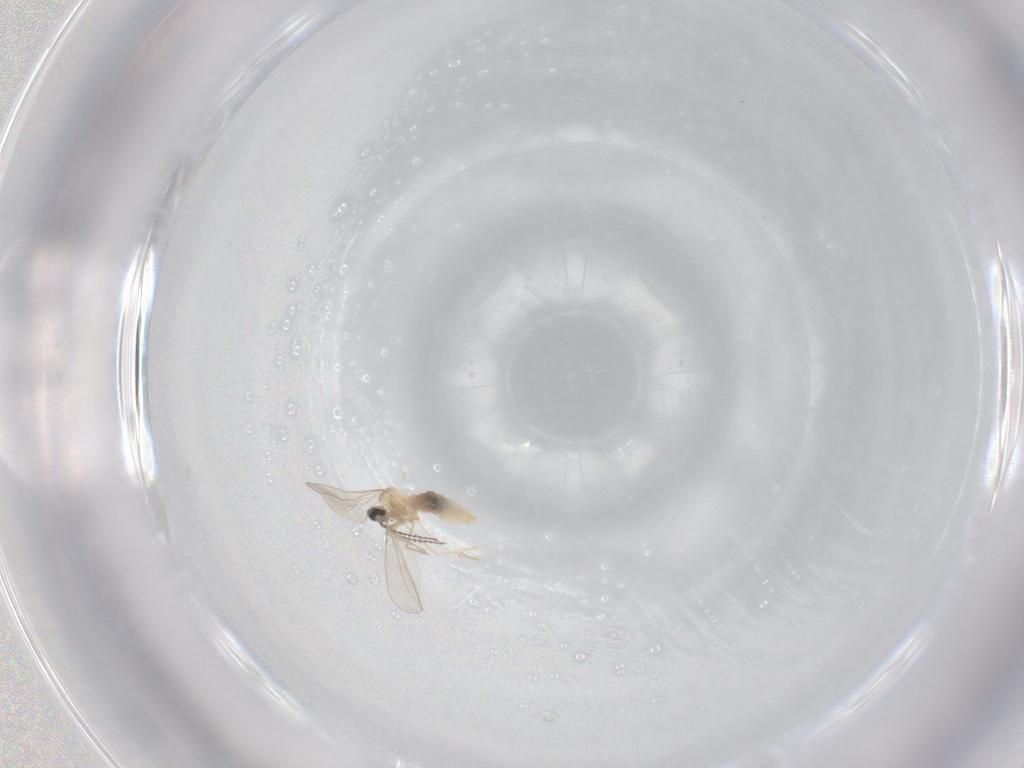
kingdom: Animalia
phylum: Arthropoda
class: Insecta
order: Diptera
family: Cecidomyiidae
